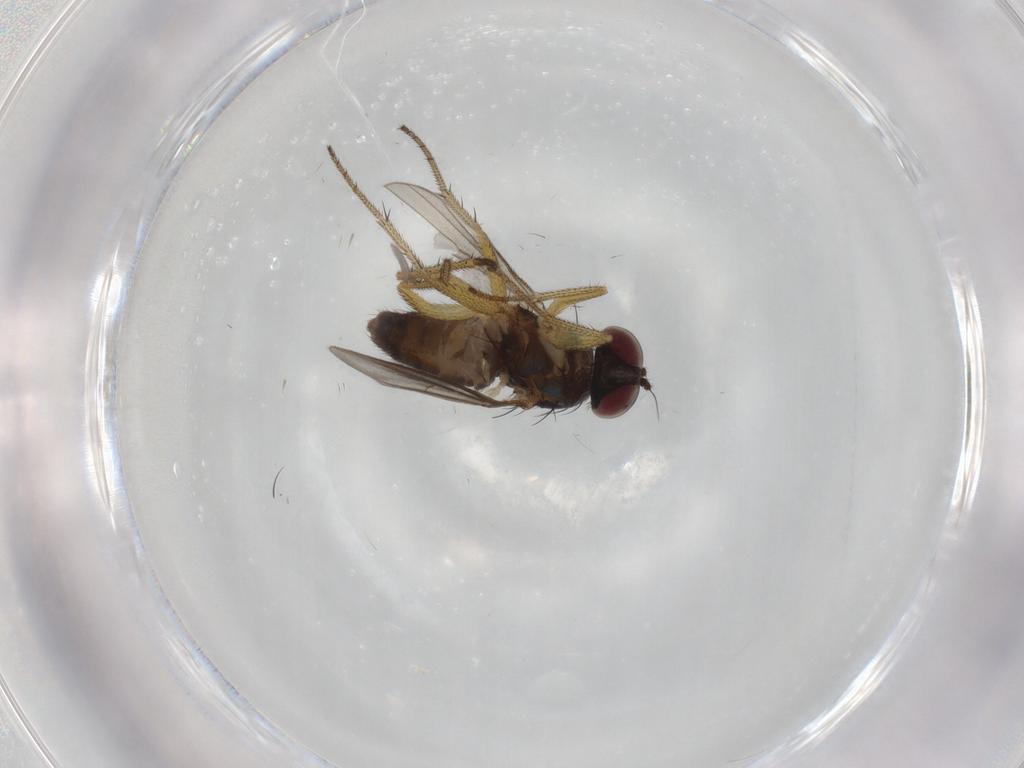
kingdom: Animalia
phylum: Arthropoda
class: Insecta
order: Diptera
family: Dolichopodidae
